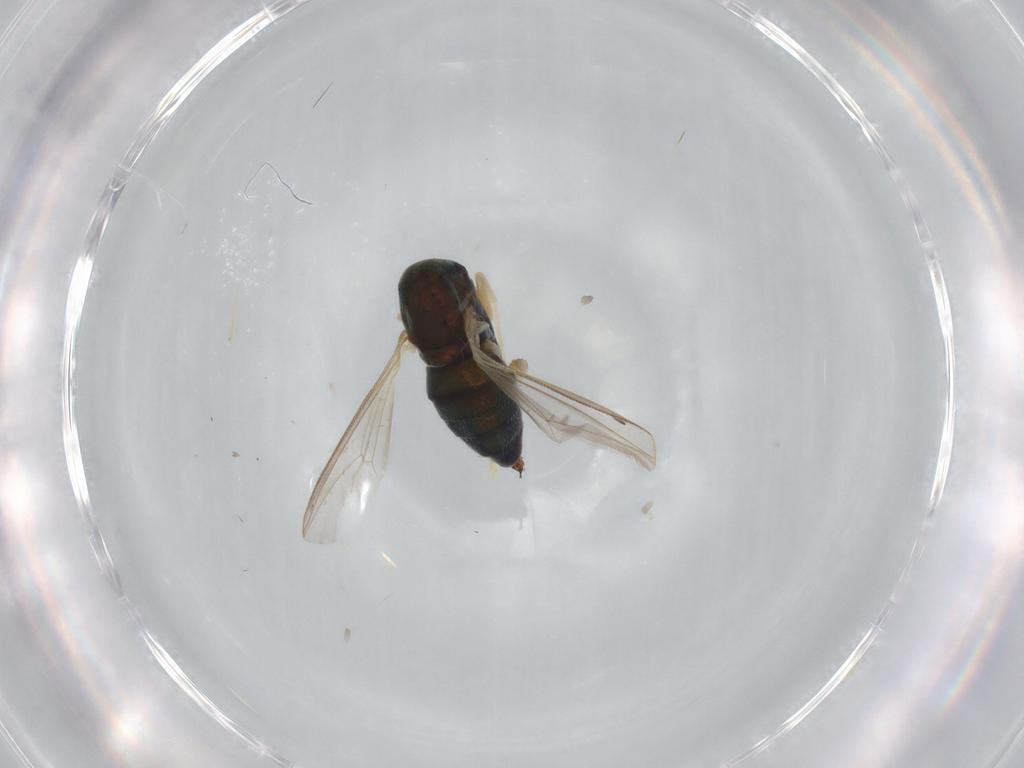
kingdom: Animalia
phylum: Arthropoda
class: Insecta
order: Diptera
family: Dolichopodidae
